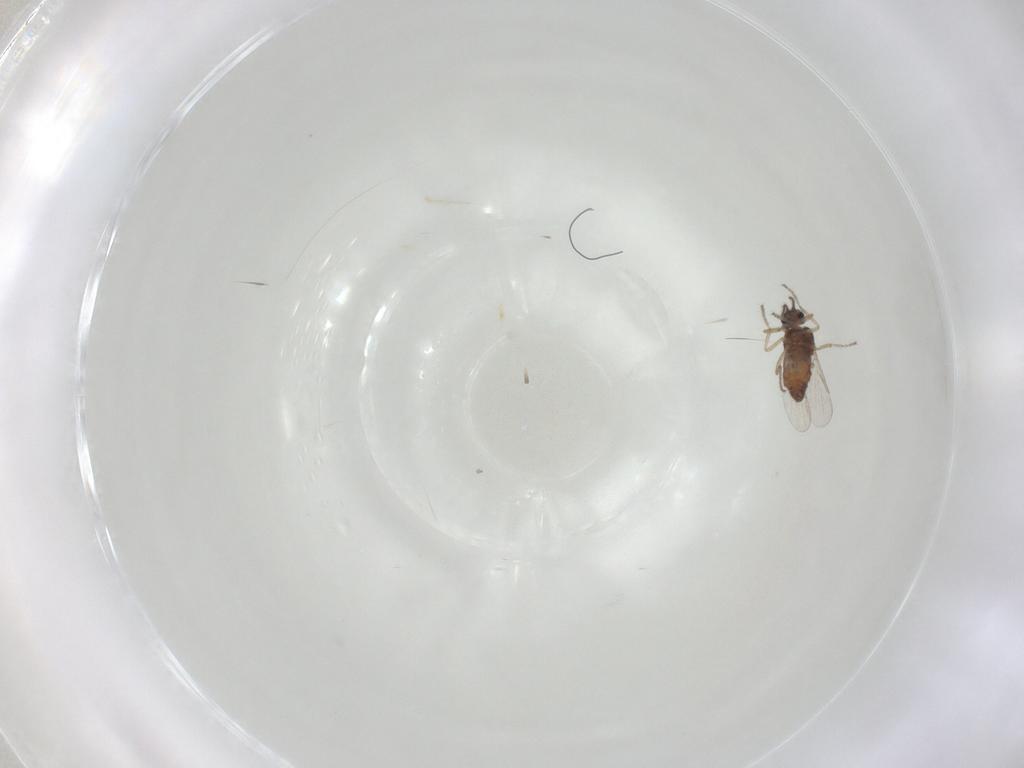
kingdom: Animalia
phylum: Arthropoda
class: Insecta
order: Diptera
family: Ceratopogonidae
